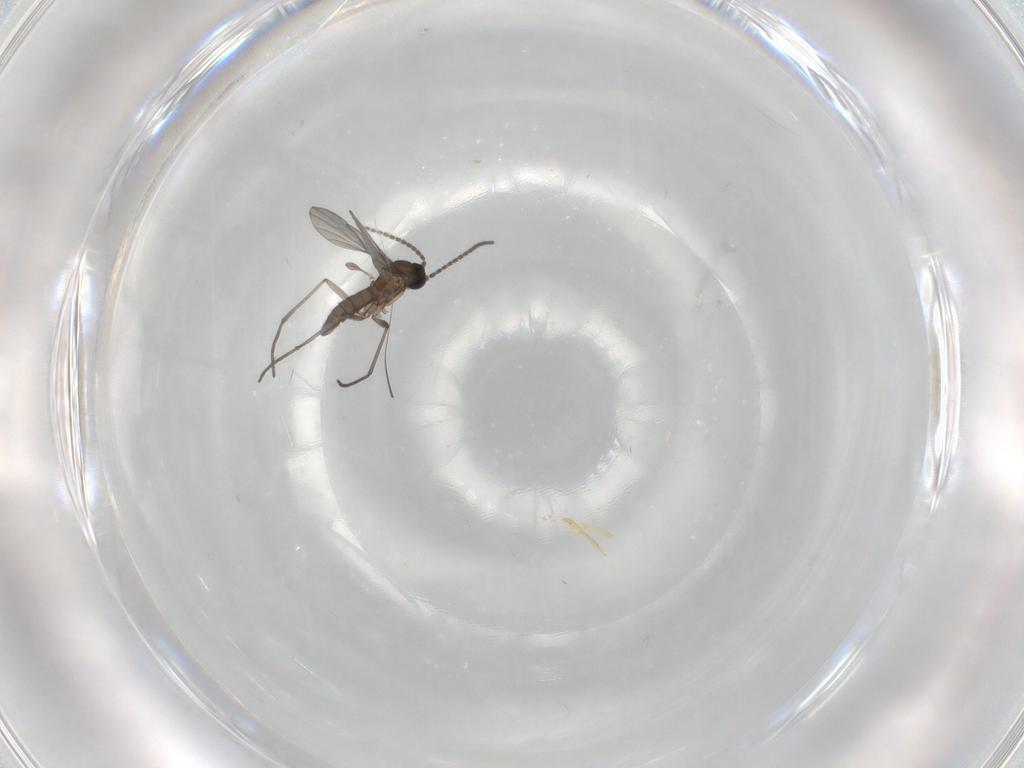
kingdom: Animalia
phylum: Arthropoda
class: Insecta
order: Diptera
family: Sciaridae
